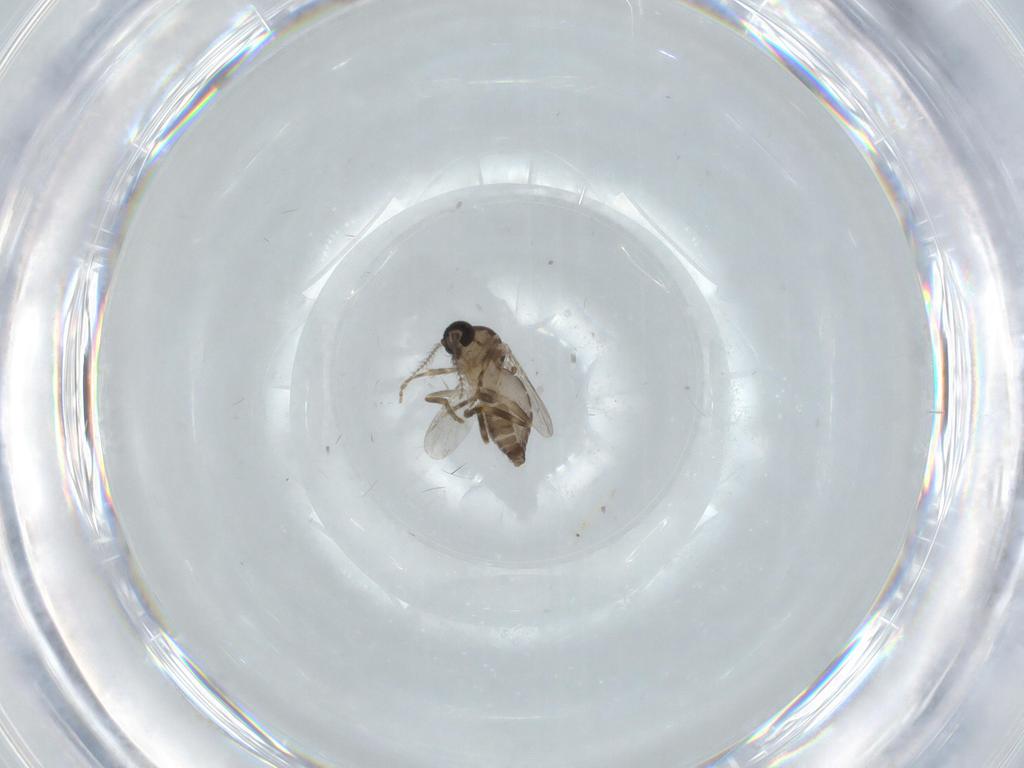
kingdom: Animalia
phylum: Arthropoda
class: Insecta
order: Diptera
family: Ceratopogonidae
